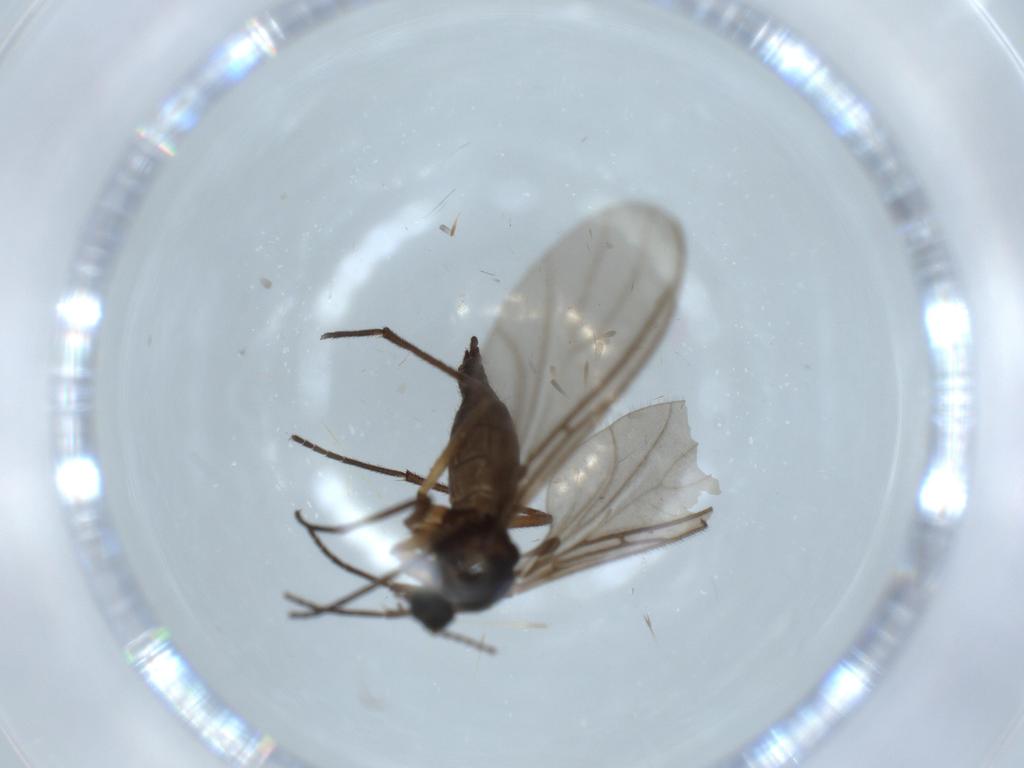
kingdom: Animalia
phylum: Arthropoda
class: Insecta
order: Diptera
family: Sciaridae
